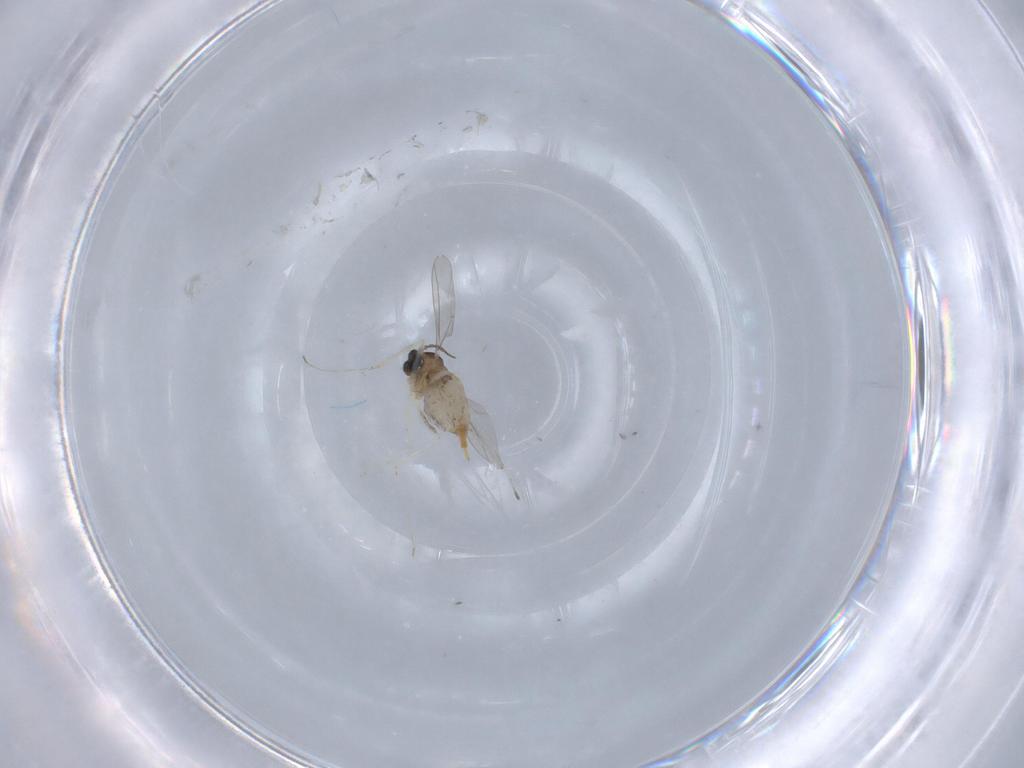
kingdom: Animalia
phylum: Arthropoda
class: Insecta
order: Diptera
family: Cecidomyiidae
